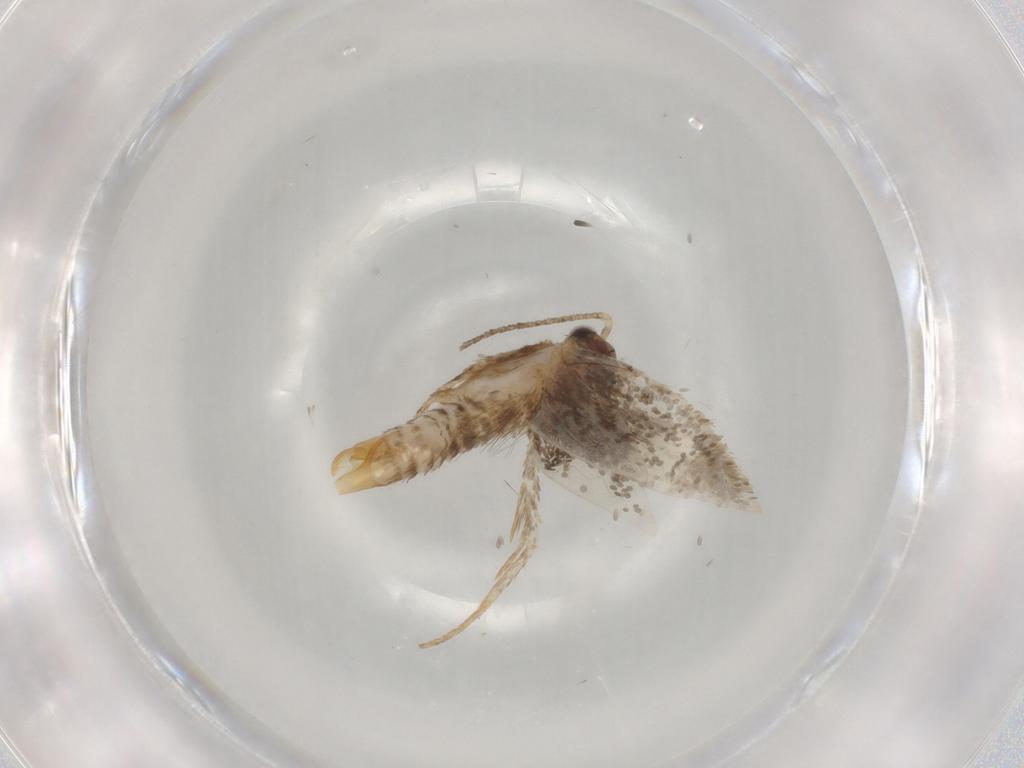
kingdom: Animalia
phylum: Arthropoda
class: Insecta
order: Lepidoptera
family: Tineidae
